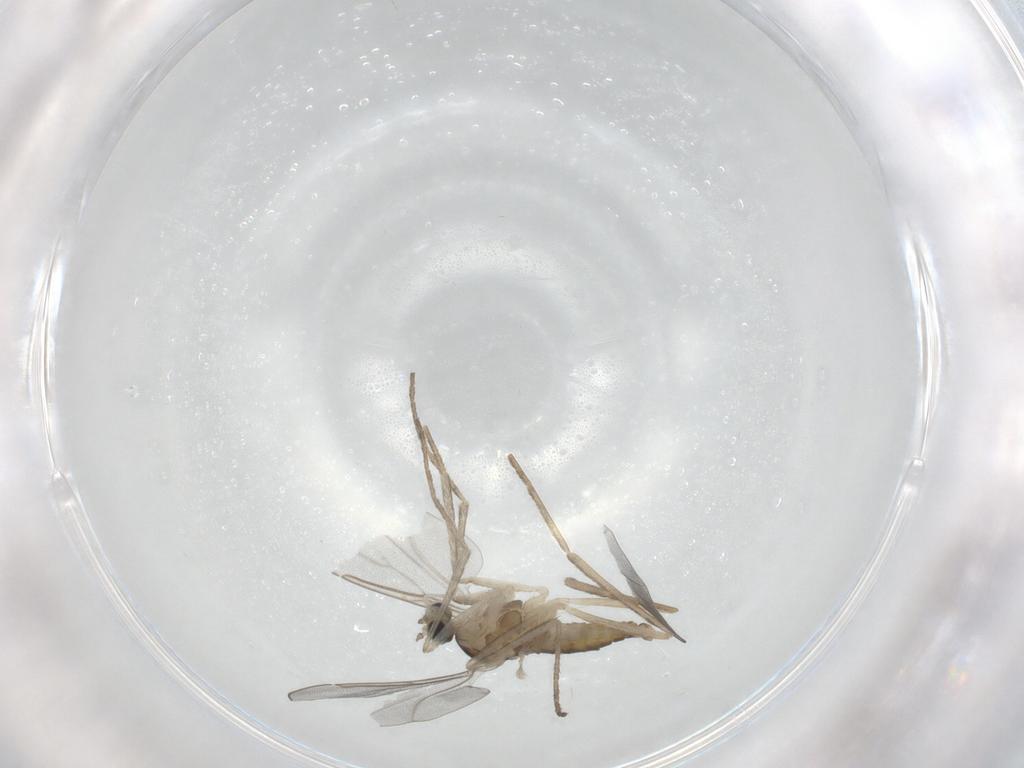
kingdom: Animalia
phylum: Arthropoda
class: Insecta
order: Diptera
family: Cecidomyiidae
